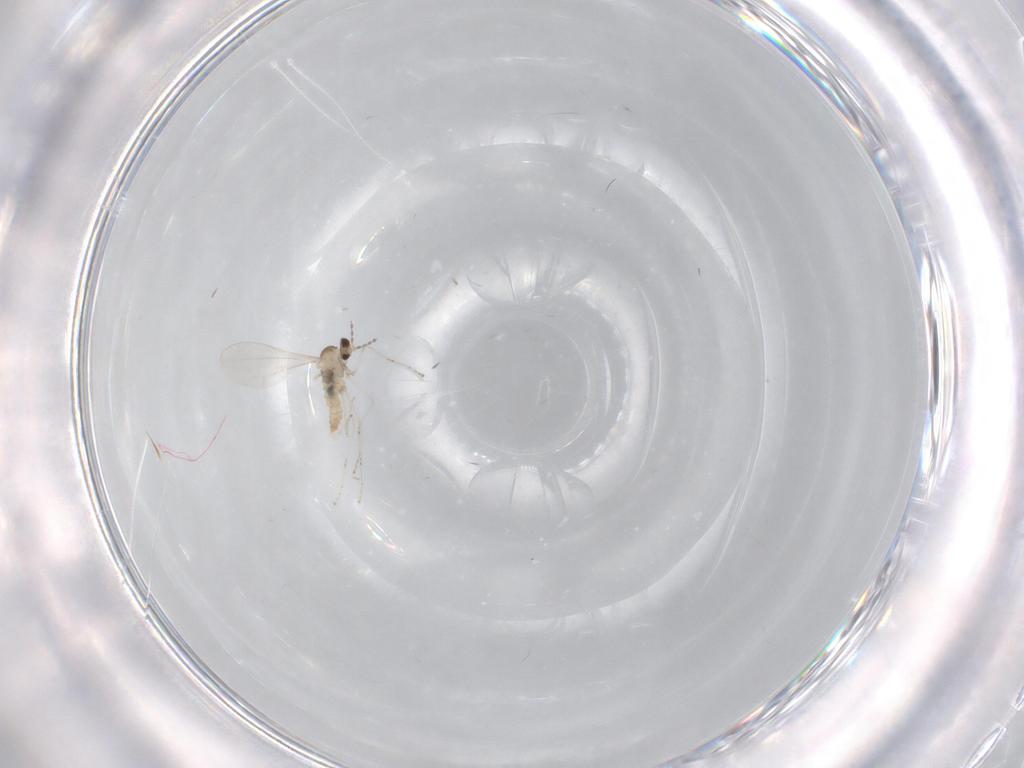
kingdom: Animalia
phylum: Arthropoda
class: Insecta
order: Diptera
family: Cecidomyiidae
